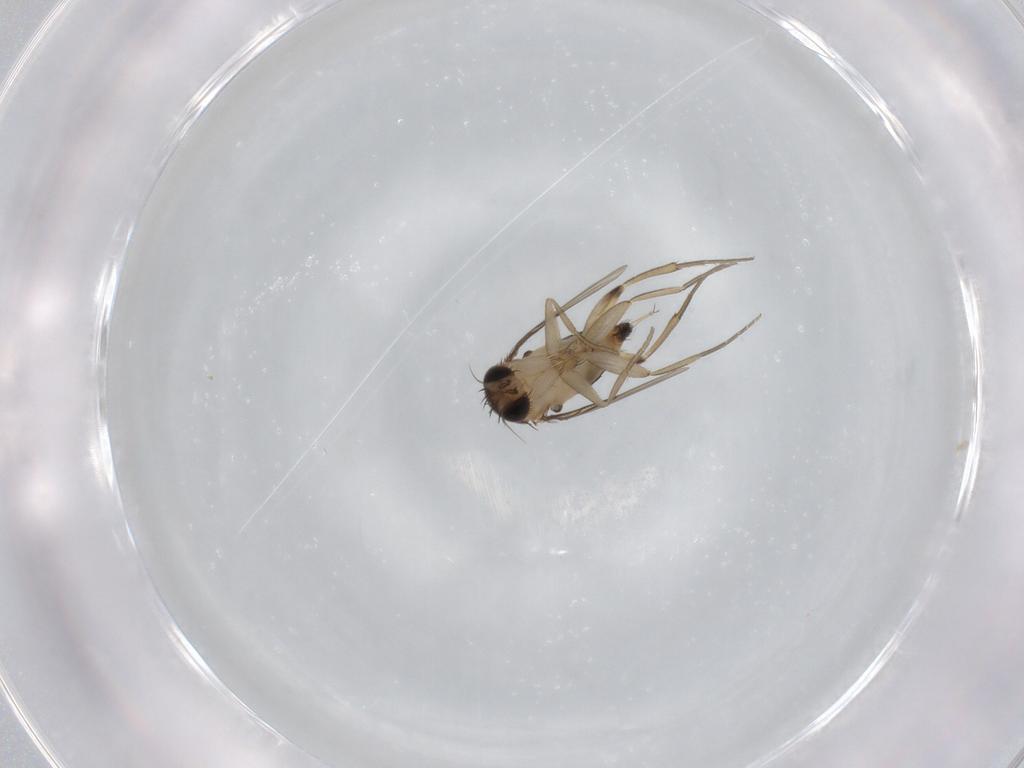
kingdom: Animalia
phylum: Arthropoda
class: Insecta
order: Diptera
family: Phoridae
